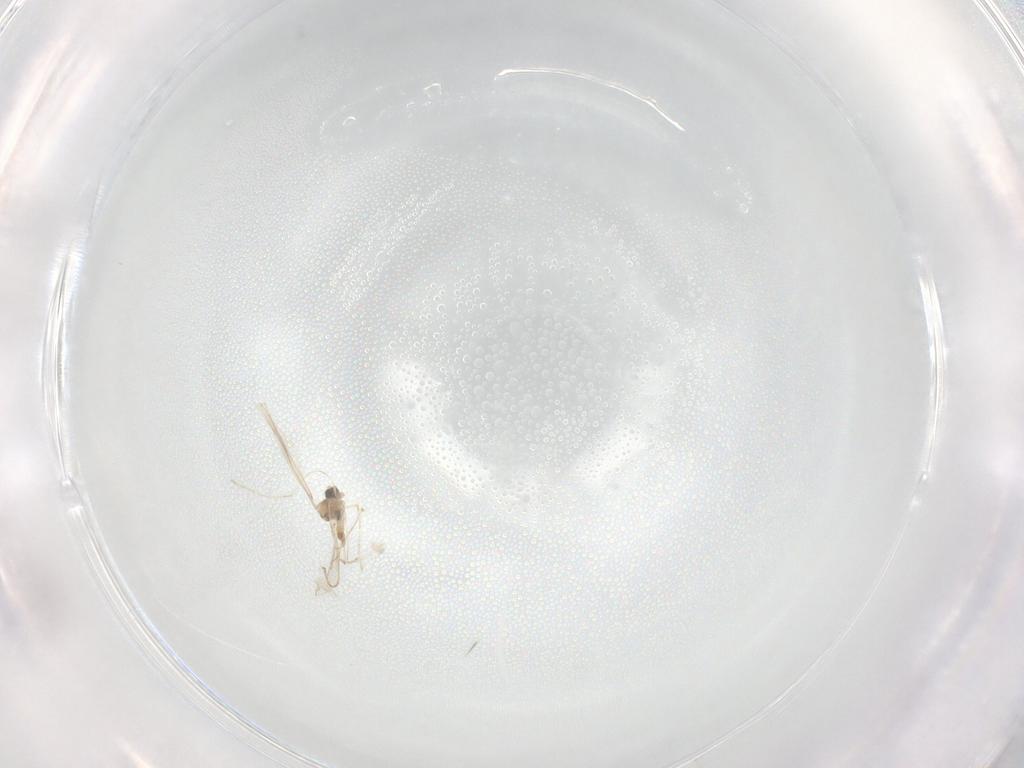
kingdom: Animalia
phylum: Arthropoda
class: Insecta
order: Diptera
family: Cecidomyiidae
